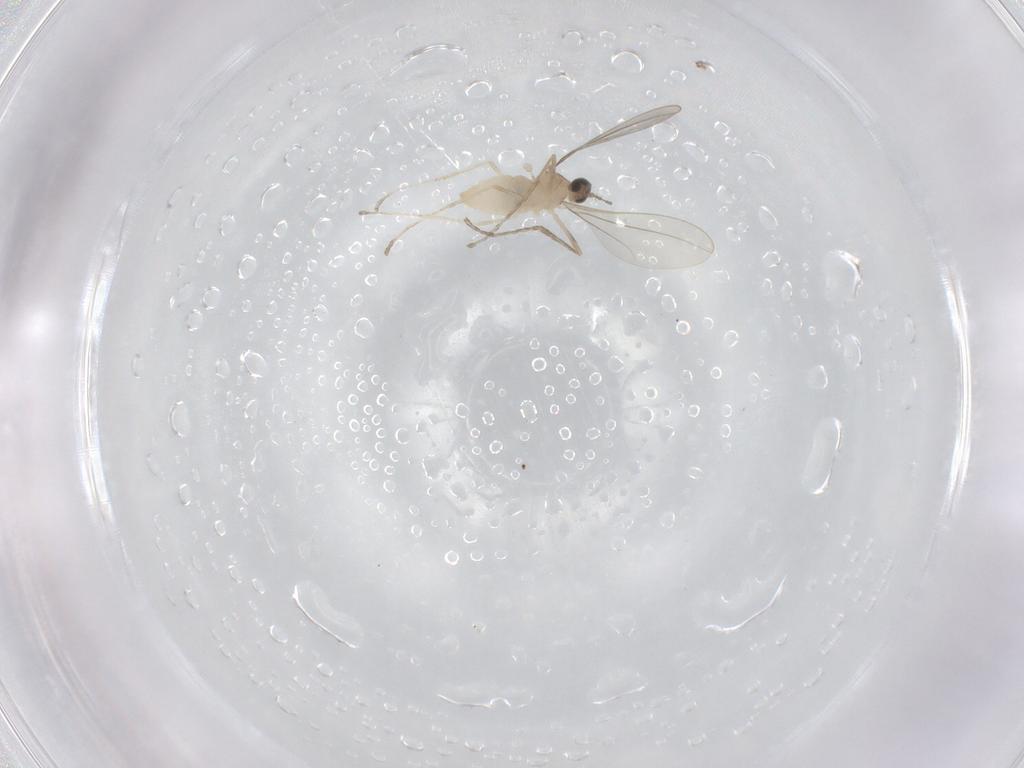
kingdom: Animalia
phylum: Arthropoda
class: Insecta
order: Diptera
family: Cecidomyiidae
